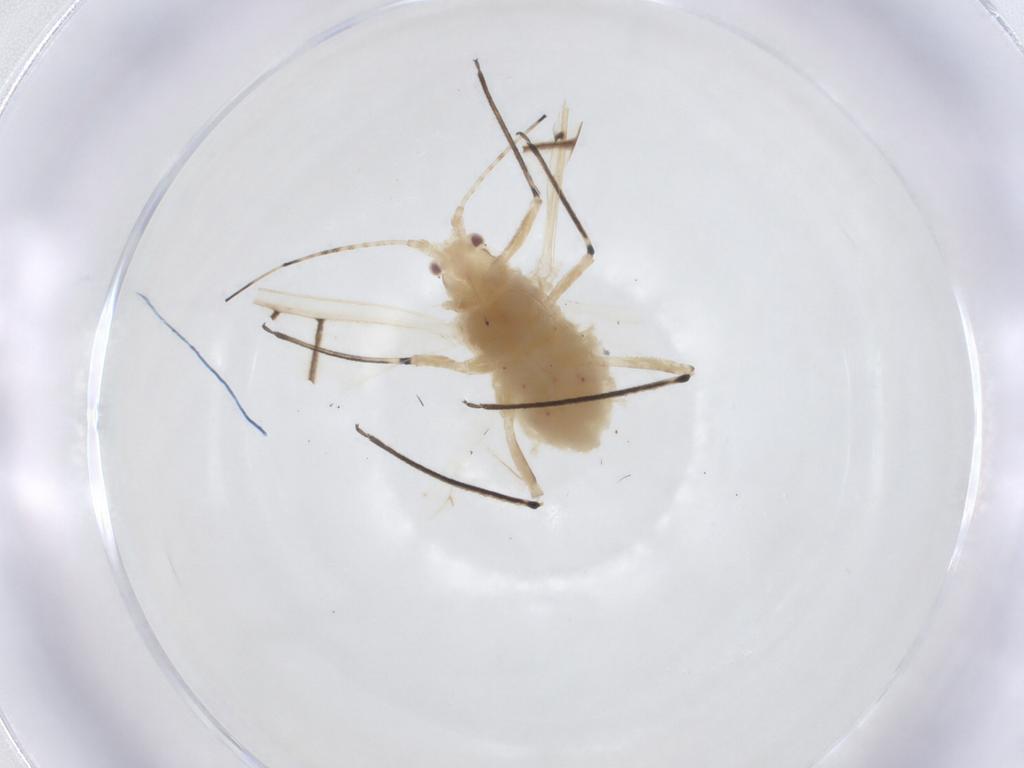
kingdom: Animalia
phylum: Arthropoda
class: Insecta
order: Hemiptera
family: Aphididae
